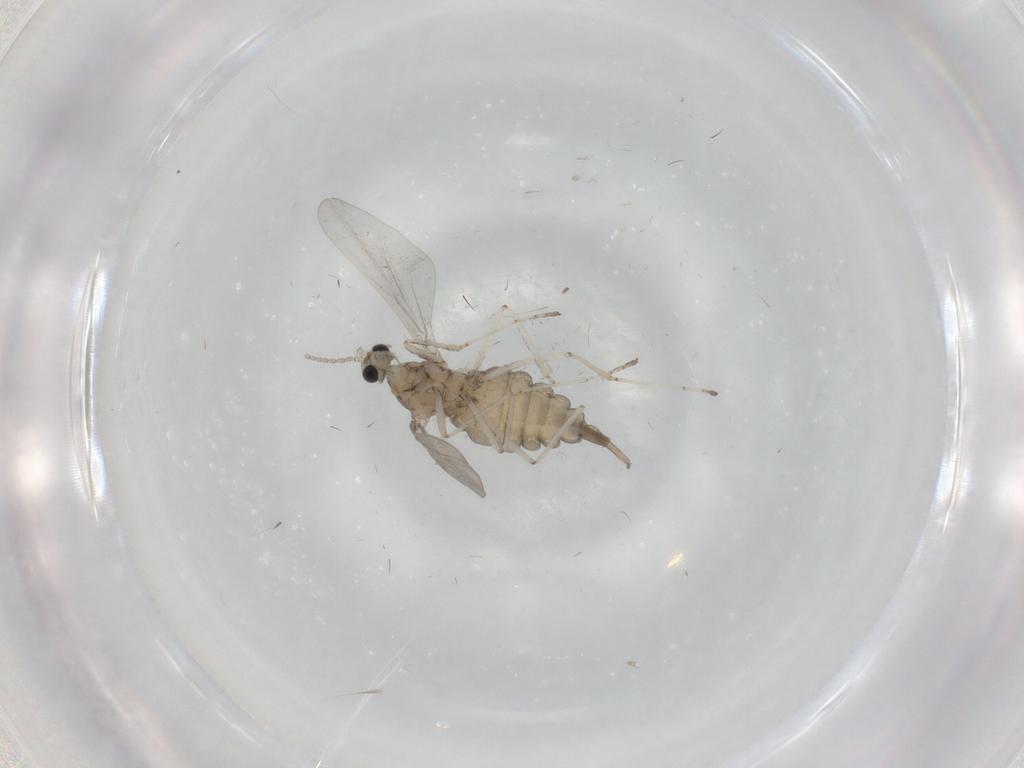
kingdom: Animalia
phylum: Arthropoda
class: Insecta
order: Diptera
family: Cecidomyiidae
